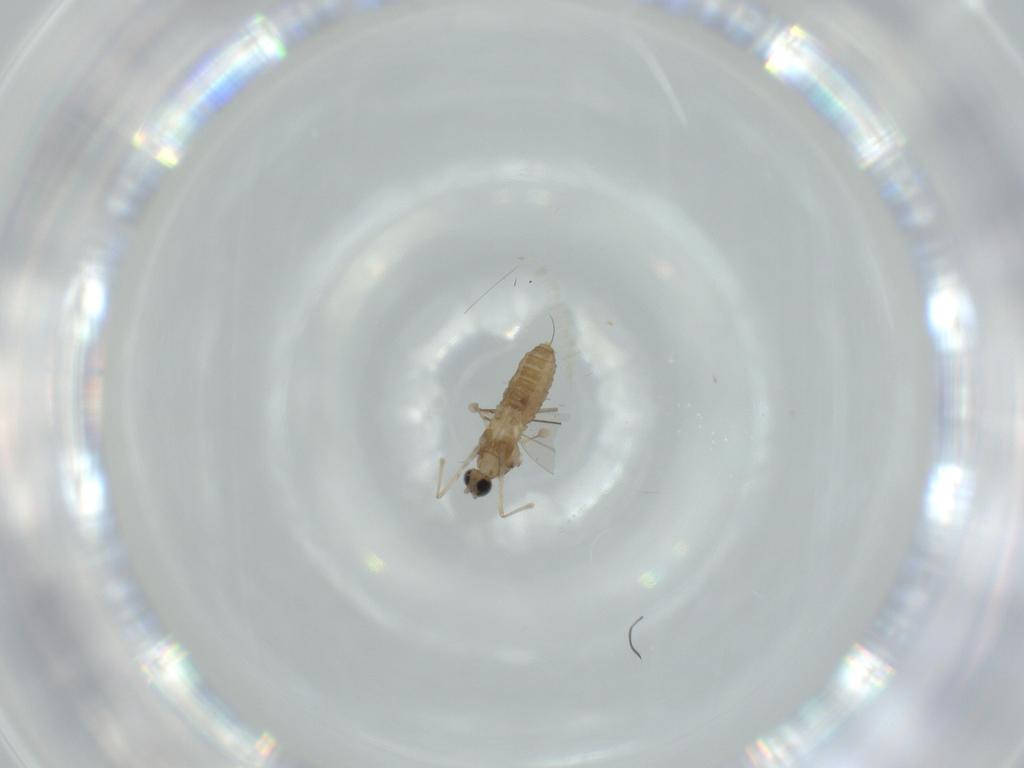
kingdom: Animalia
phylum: Arthropoda
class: Insecta
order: Diptera
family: Cecidomyiidae
